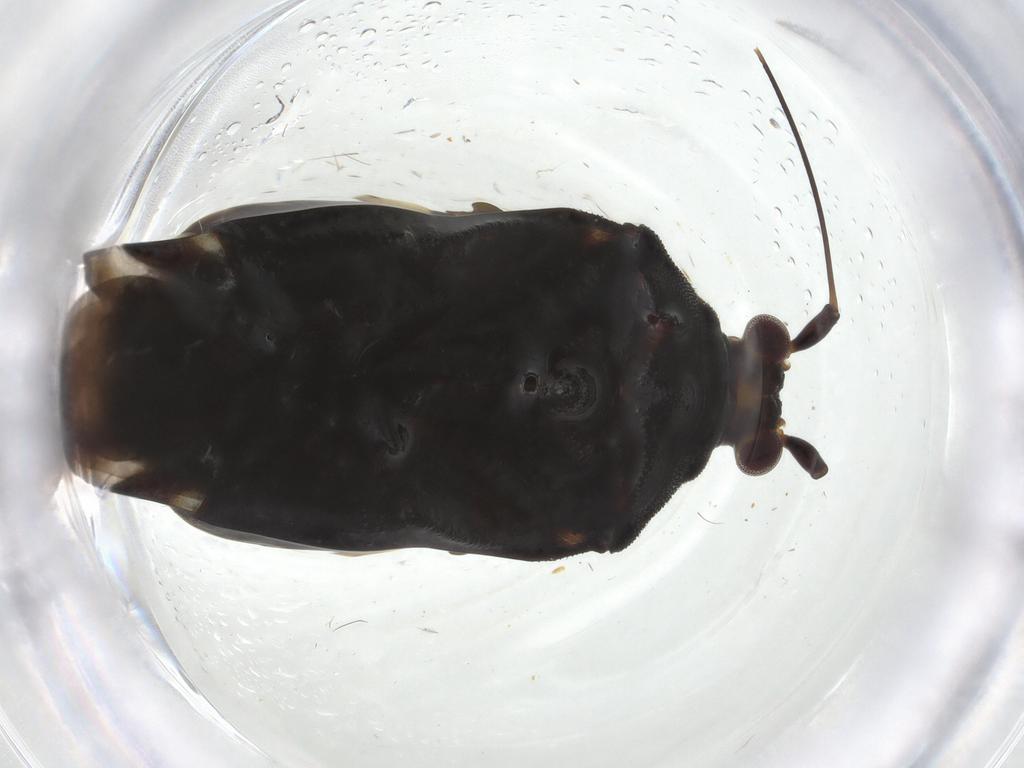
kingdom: Animalia
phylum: Arthropoda
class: Insecta
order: Hemiptera
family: Miridae
